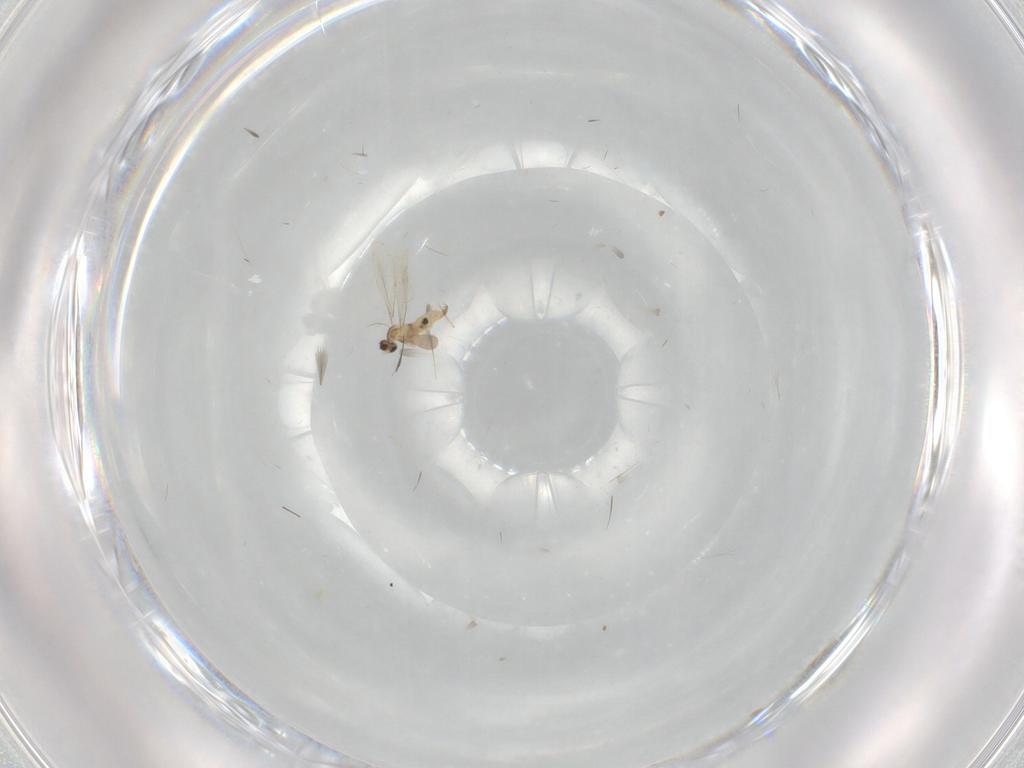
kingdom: Animalia
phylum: Arthropoda
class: Insecta
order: Diptera
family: Cecidomyiidae
